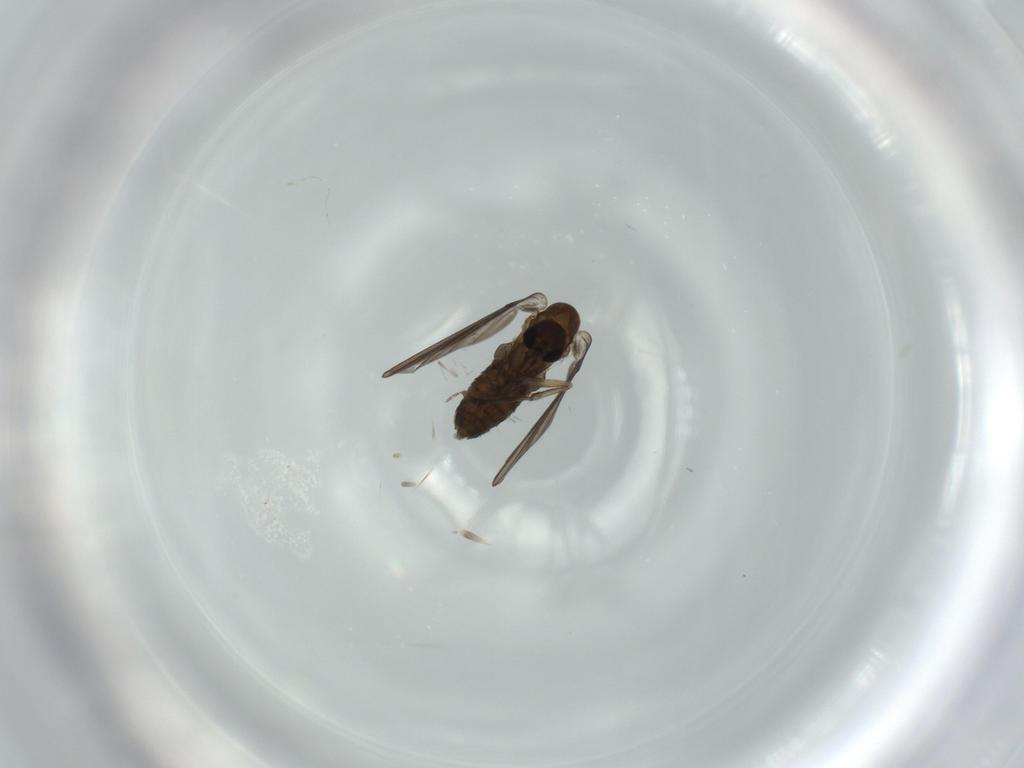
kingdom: Animalia
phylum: Arthropoda
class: Insecta
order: Diptera
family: Psychodidae
